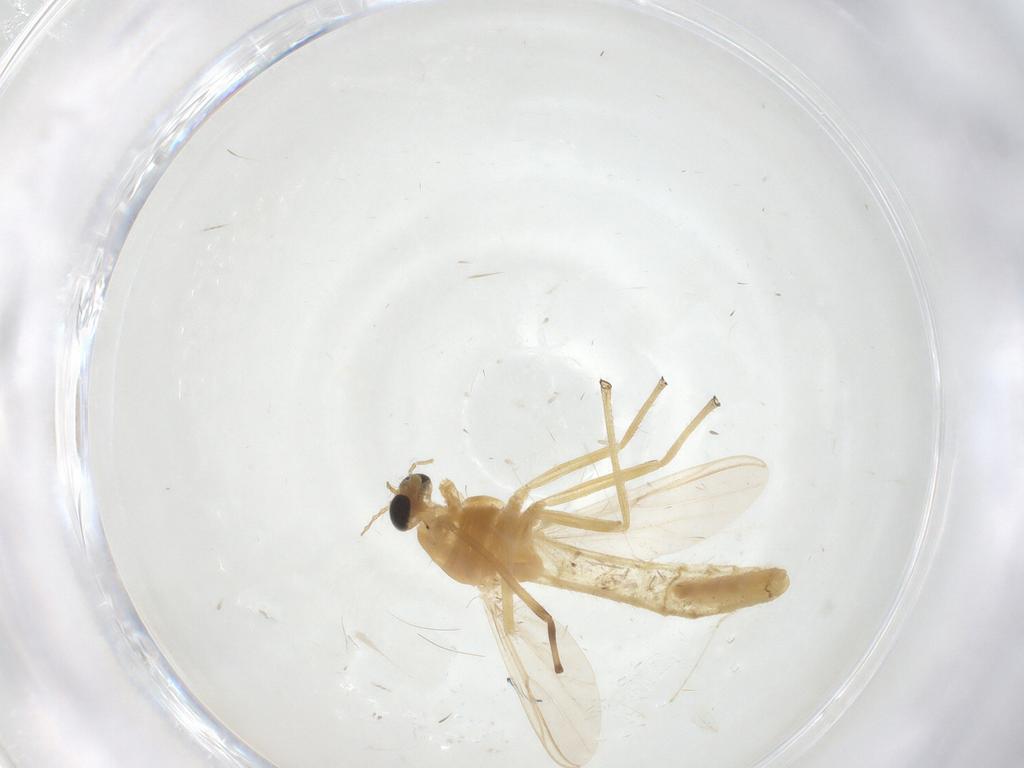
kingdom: Animalia
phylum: Arthropoda
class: Insecta
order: Diptera
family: Chironomidae
